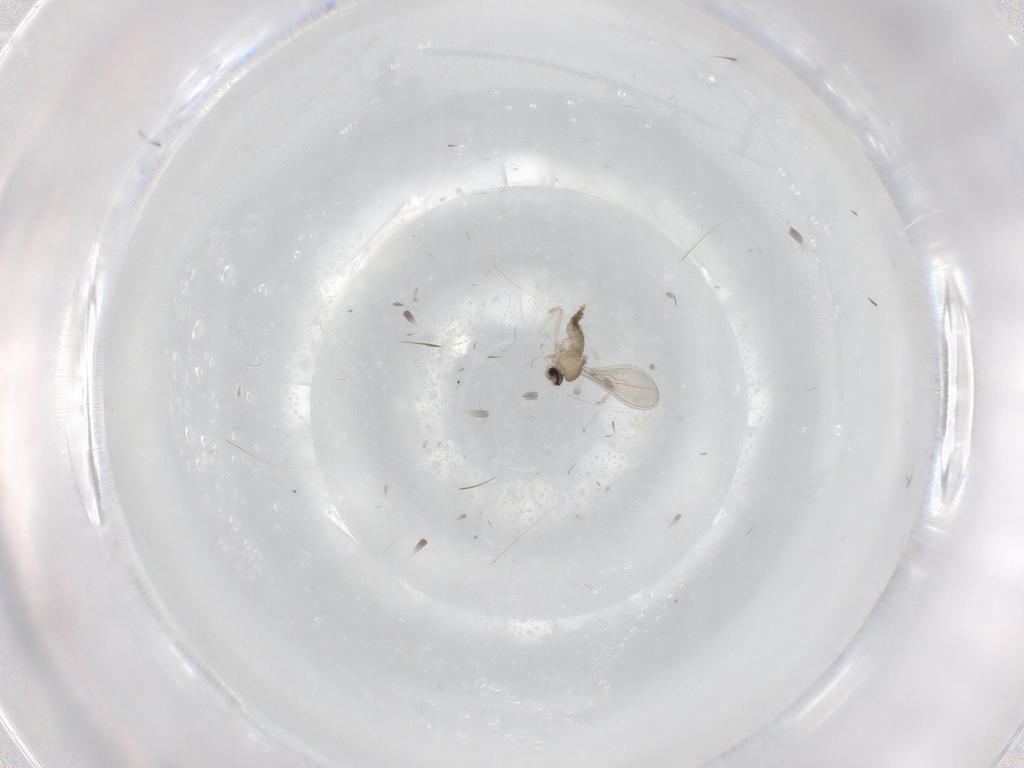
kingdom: Animalia
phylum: Arthropoda
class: Insecta
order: Diptera
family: Cecidomyiidae
